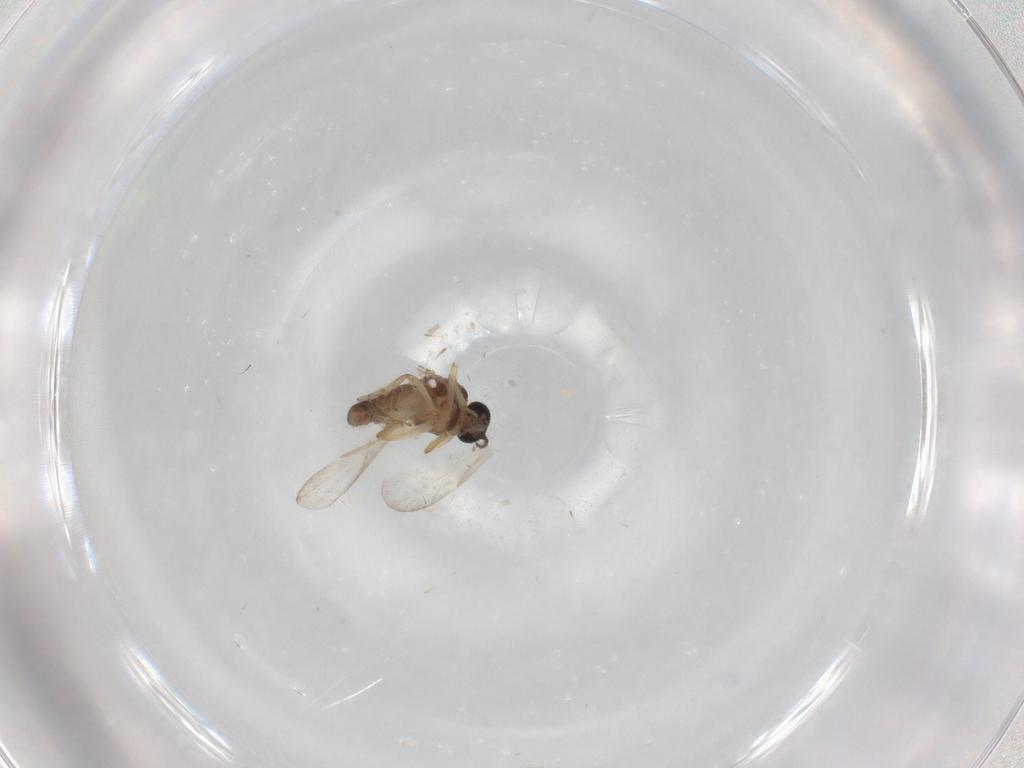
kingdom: Animalia
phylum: Arthropoda
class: Insecta
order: Diptera
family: Ceratopogonidae
